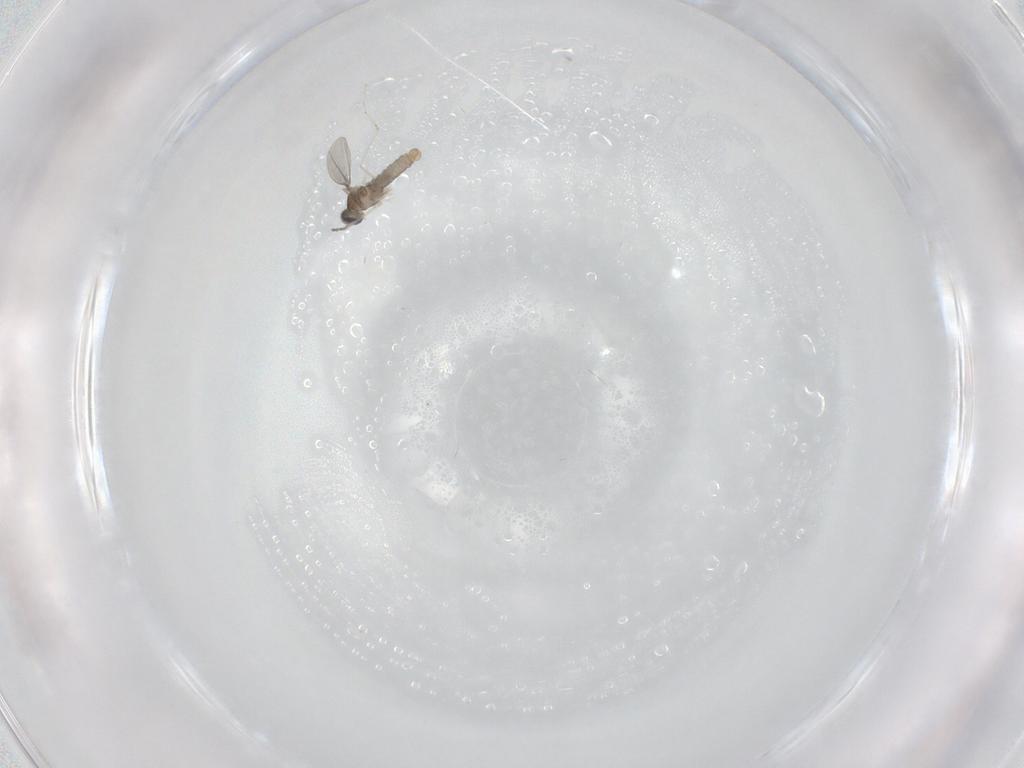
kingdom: Animalia
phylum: Arthropoda
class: Insecta
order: Diptera
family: Cecidomyiidae
